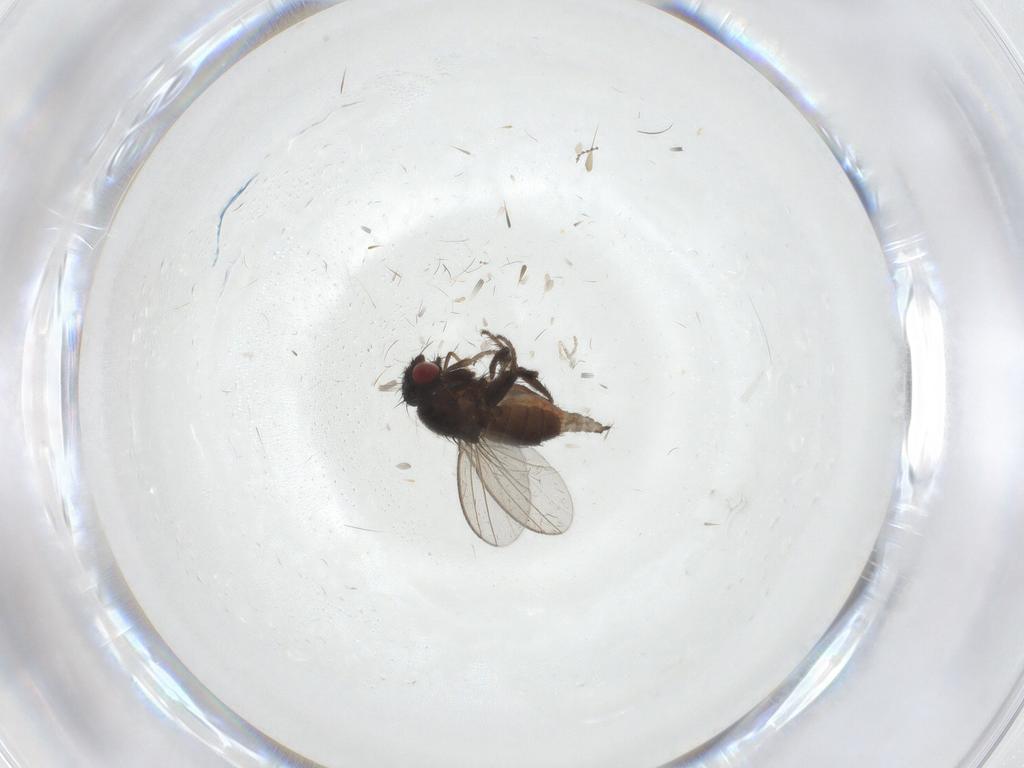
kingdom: Animalia
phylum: Arthropoda
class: Insecta
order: Diptera
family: Milichiidae
